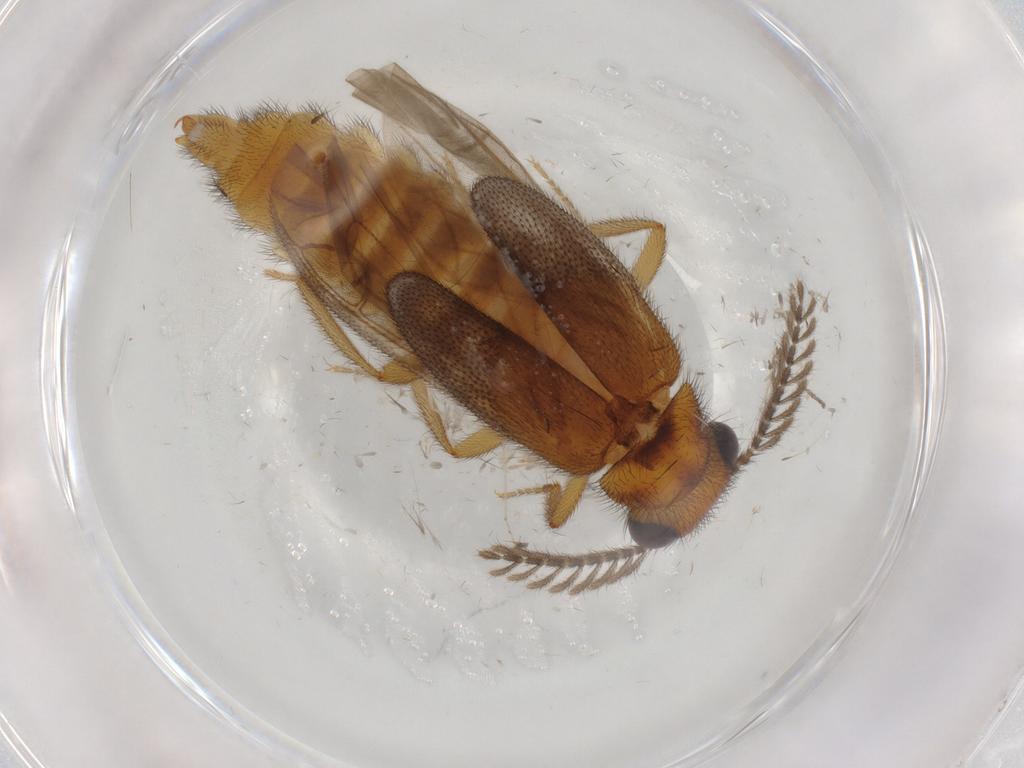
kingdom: Animalia
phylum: Arthropoda
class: Insecta
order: Coleoptera
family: Phengodidae
